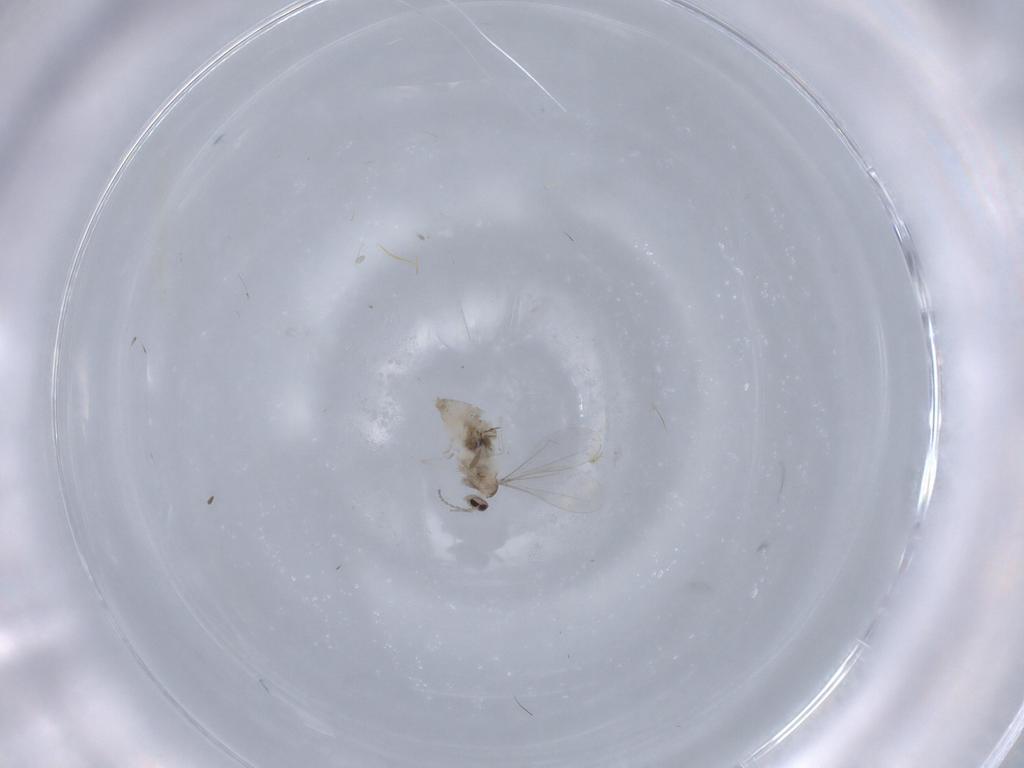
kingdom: Animalia
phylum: Arthropoda
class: Insecta
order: Diptera
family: Cecidomyiidae
